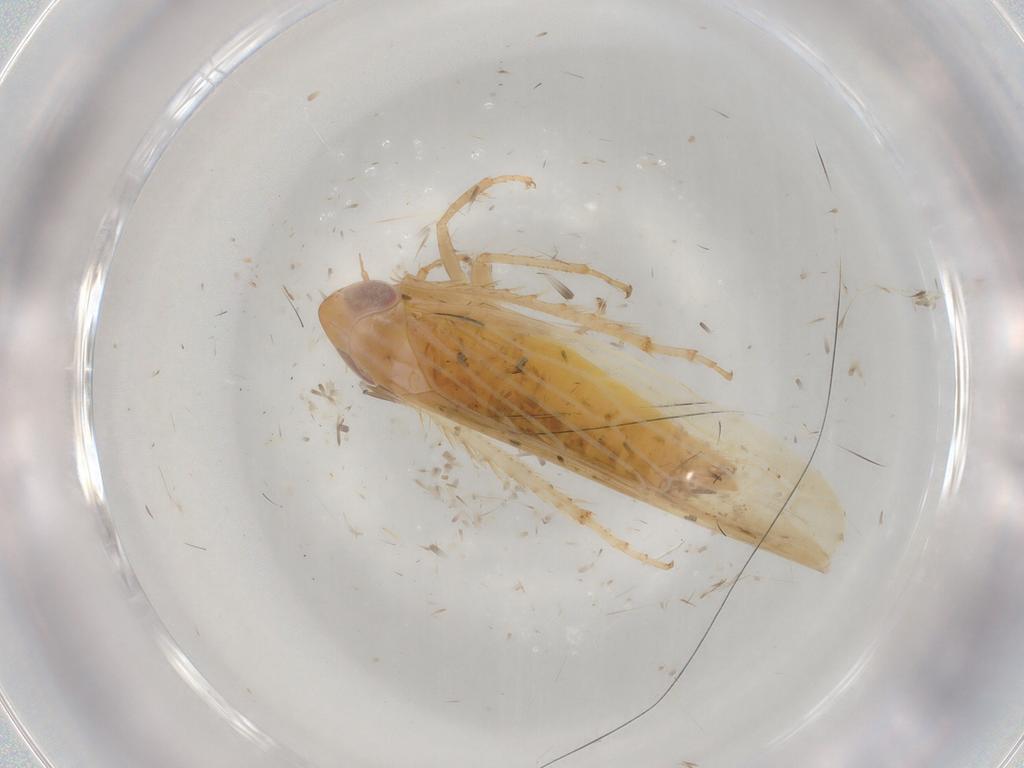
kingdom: Animalia
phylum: Arthropoda
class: Insecta
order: Hemiptera
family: Cicadellidae
